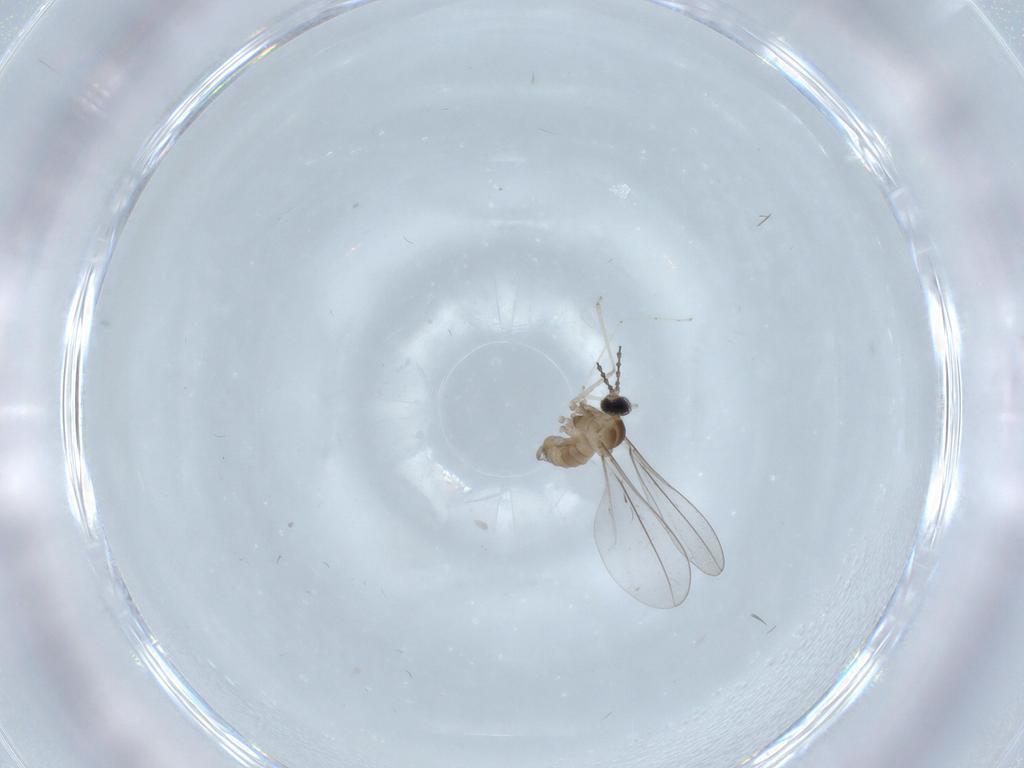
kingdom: Animalia
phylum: Arthropoda
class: Insecta
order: Diptera
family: Cecidomyiidae
